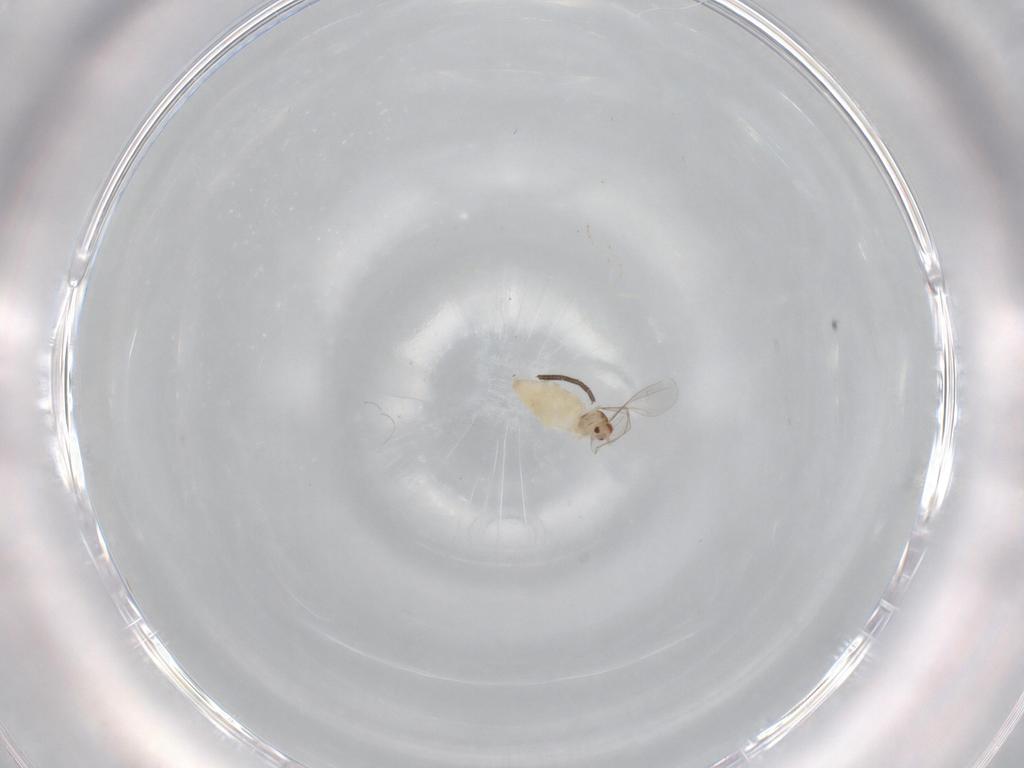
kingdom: Animalia
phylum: Arthropoda
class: Insecta
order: Diptera
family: Cecidomyiidae
